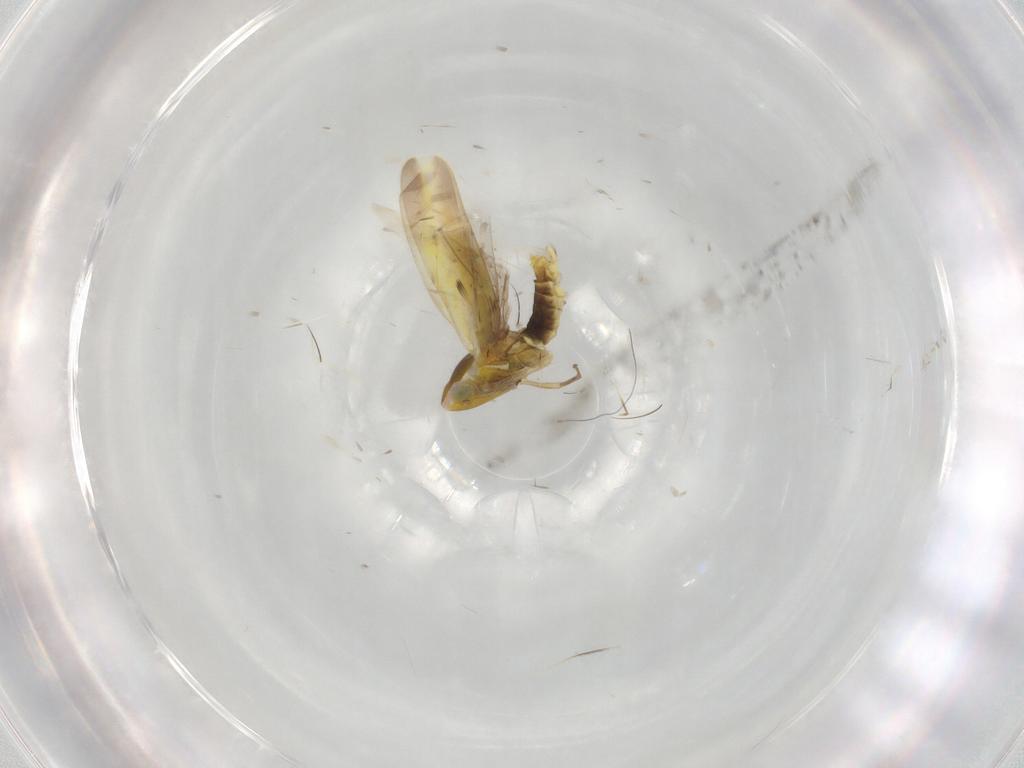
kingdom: Animalia
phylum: Arthropoda
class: Insecta
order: Hemiptera
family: Cicadellidae
